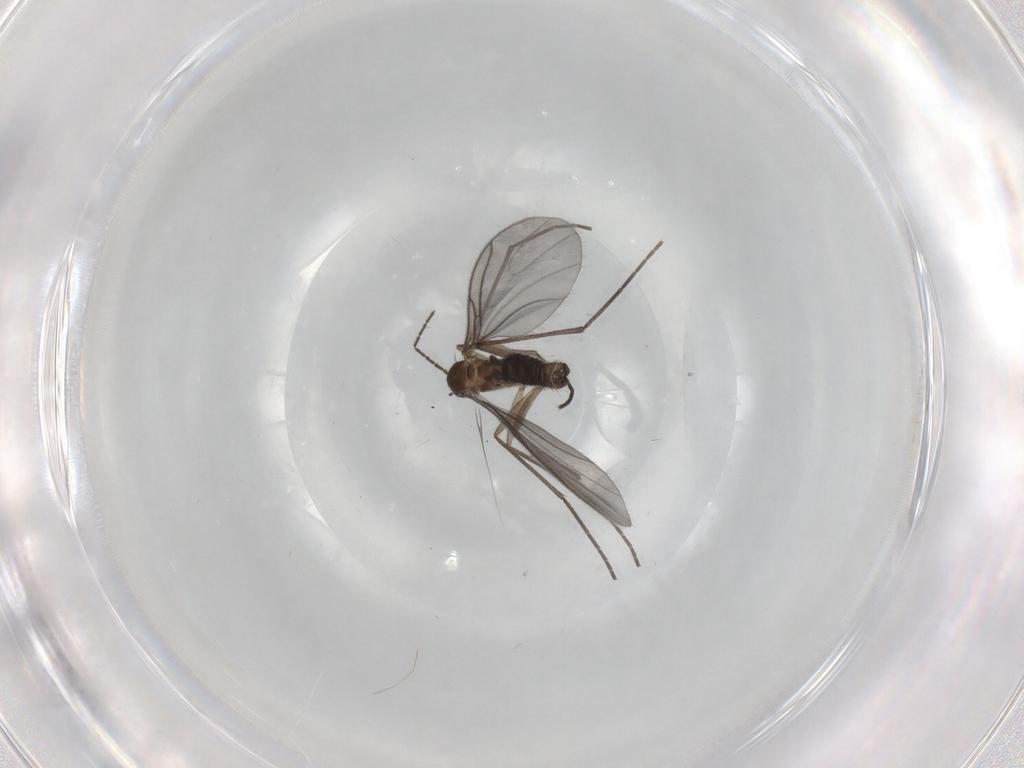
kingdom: Animalia
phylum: Arthropoda
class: Insecta
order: Diptera
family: Sciaridae
